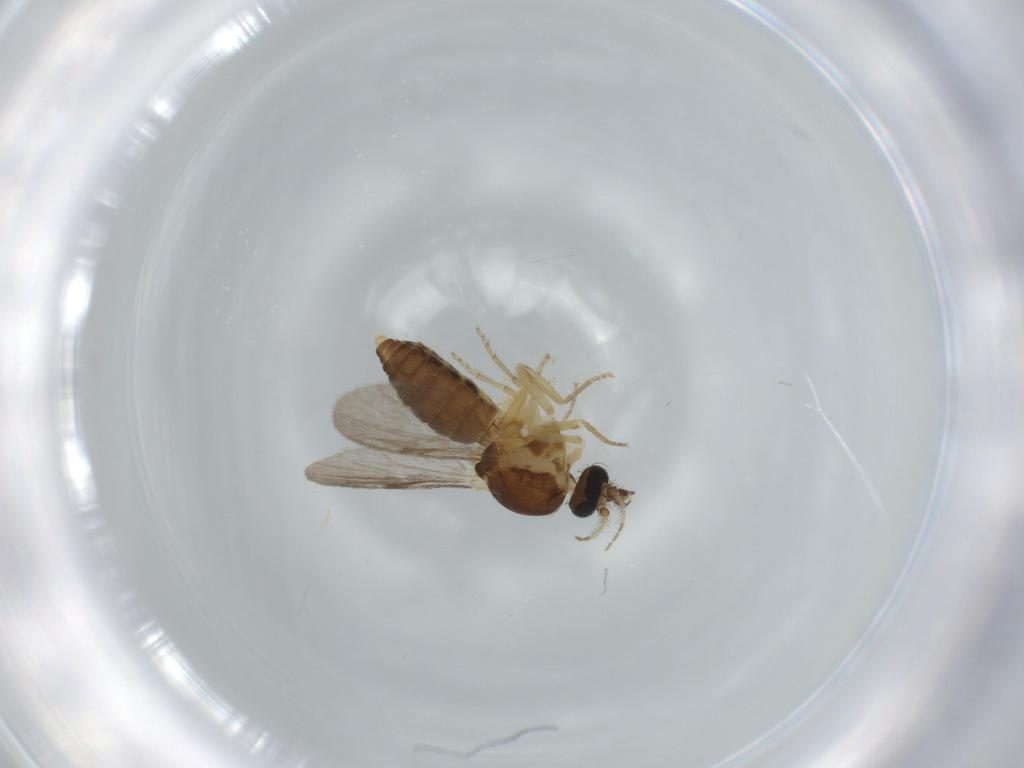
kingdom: Animalia
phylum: Arthropoda
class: Insecta
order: Diptera
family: Ceratopogonidae
